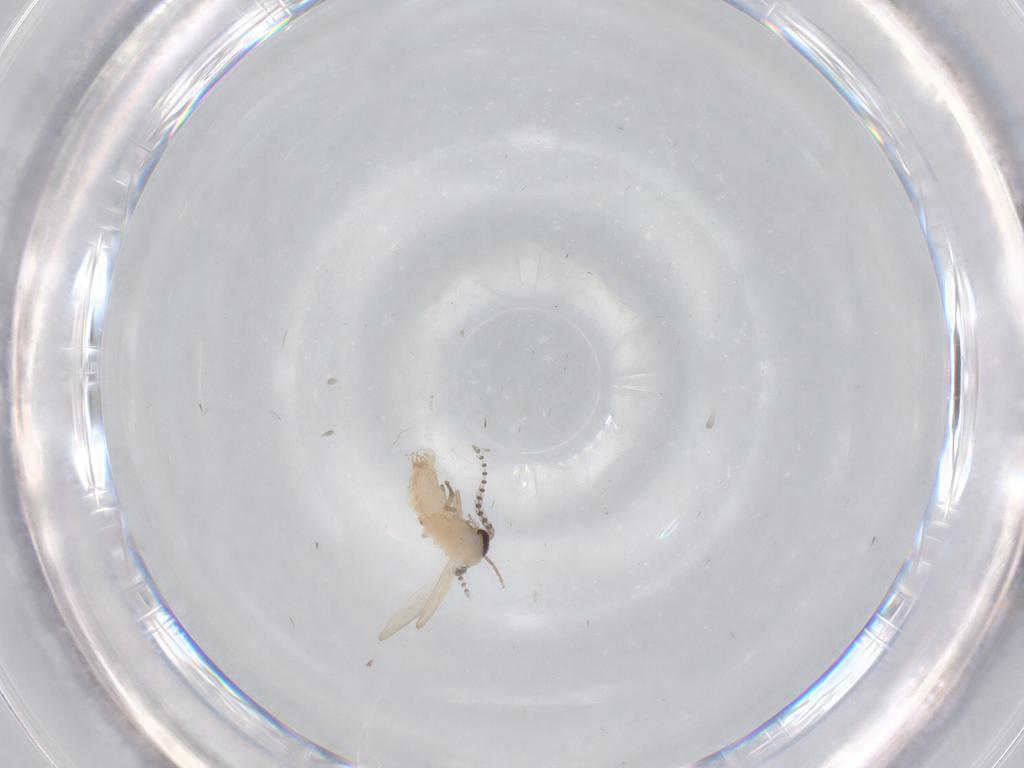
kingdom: Animalia
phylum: Arthropoda
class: Insecta
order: Diptera
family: Psychodidae
